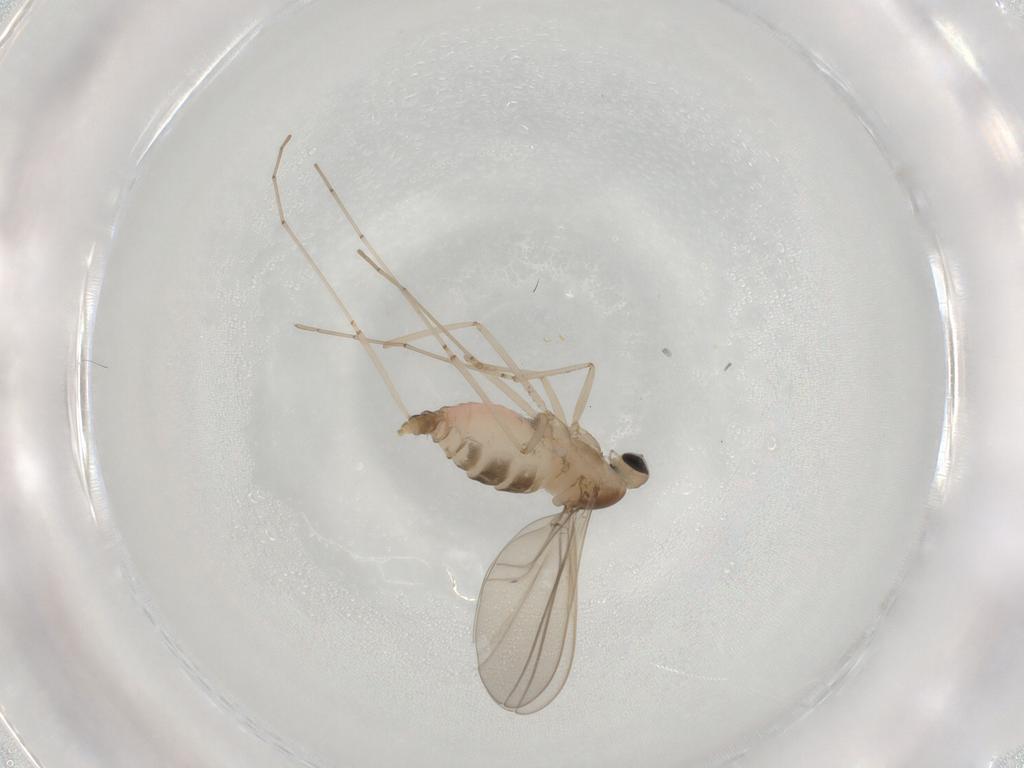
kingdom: Animalia
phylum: Arthropoda
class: Insecta
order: Diptera
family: Cecidomyiidae
